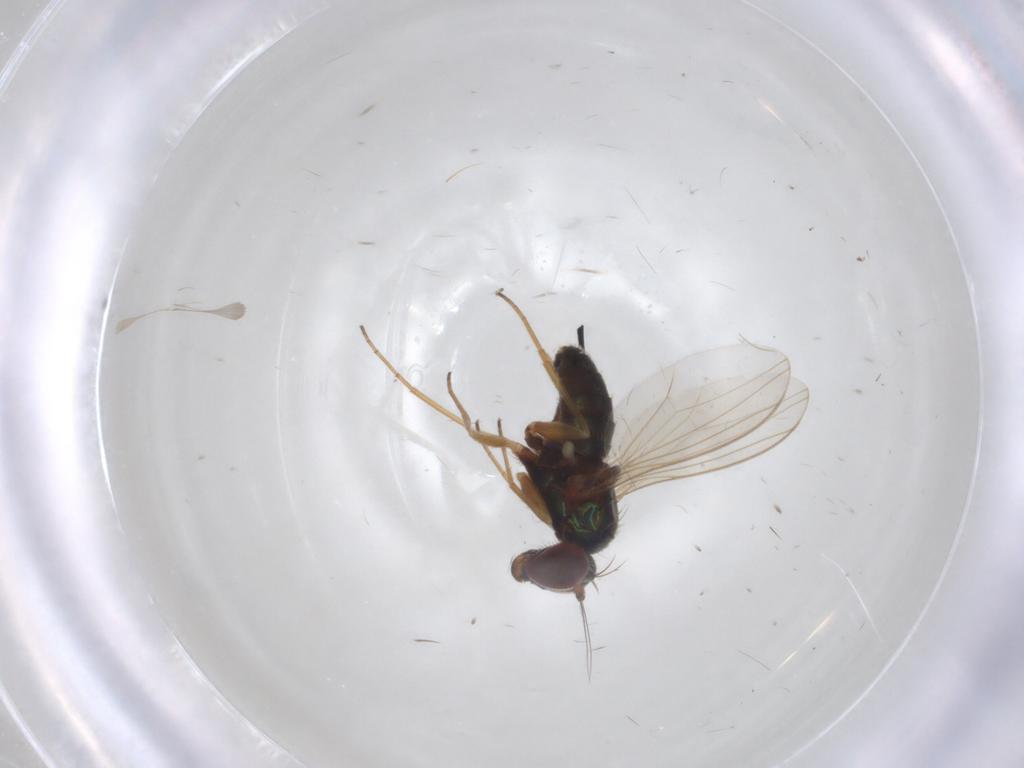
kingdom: Animalia
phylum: Arthropoda
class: Insecta
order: Diptera
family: Dolichopodidae
